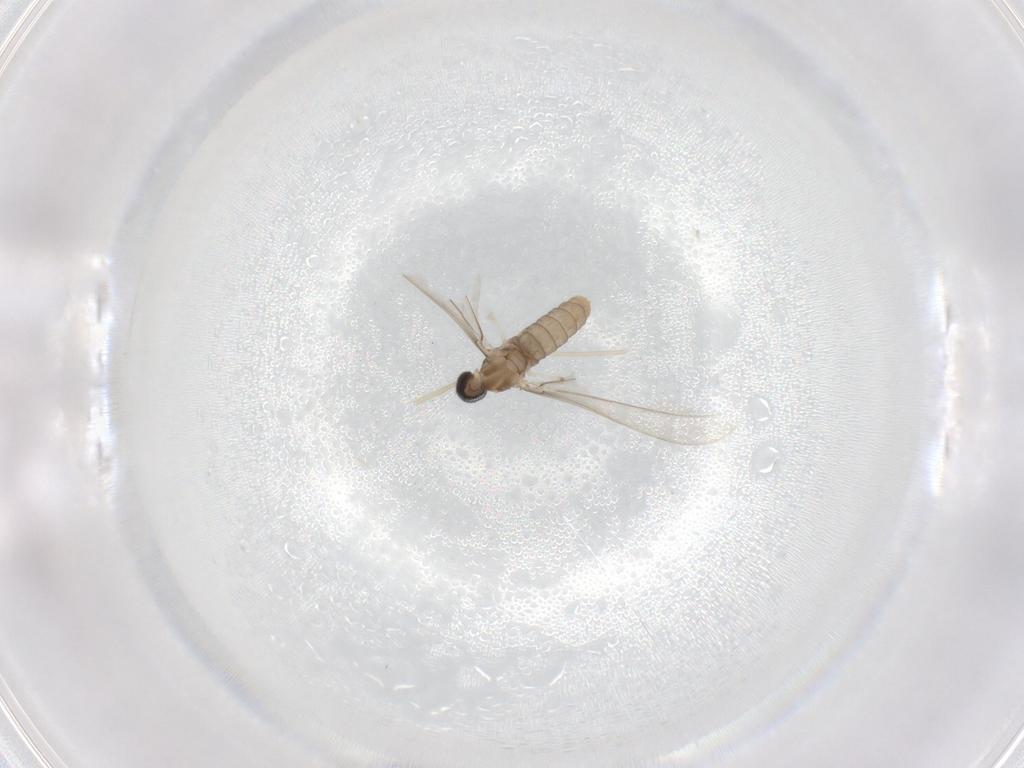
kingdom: Animalia
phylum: Arthropoda
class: Insecta
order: Diptera
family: Cecidomyiidae
